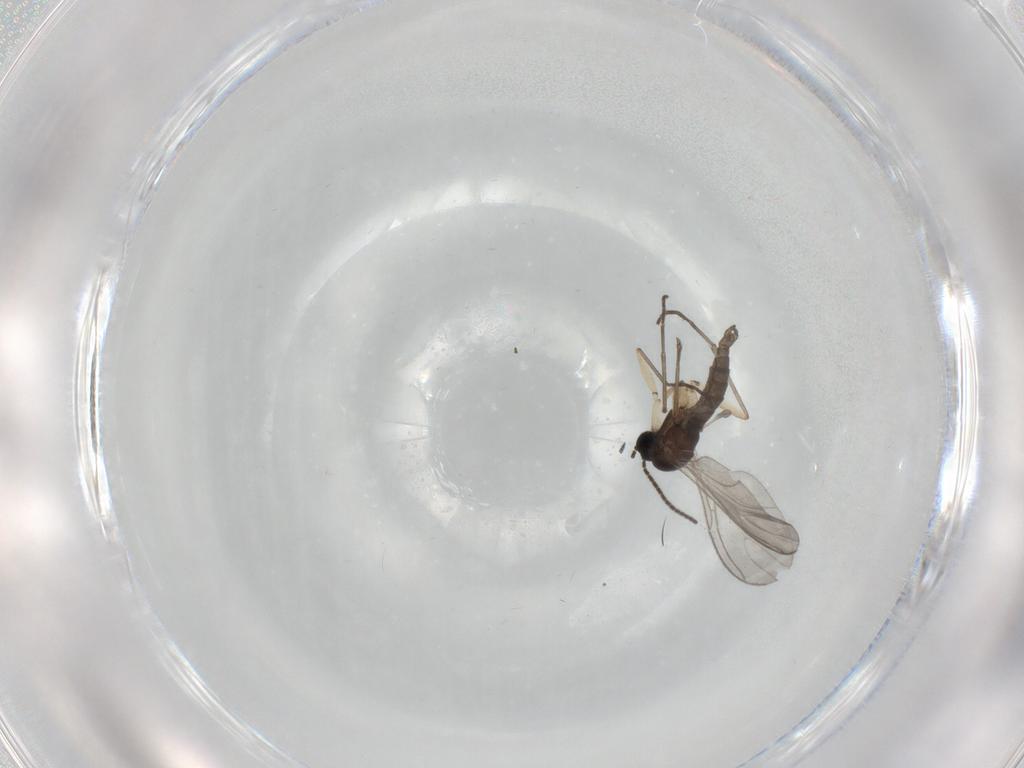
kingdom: Animalia
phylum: Arthropoda
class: Insecta
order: Diptera
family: Sciaridae
